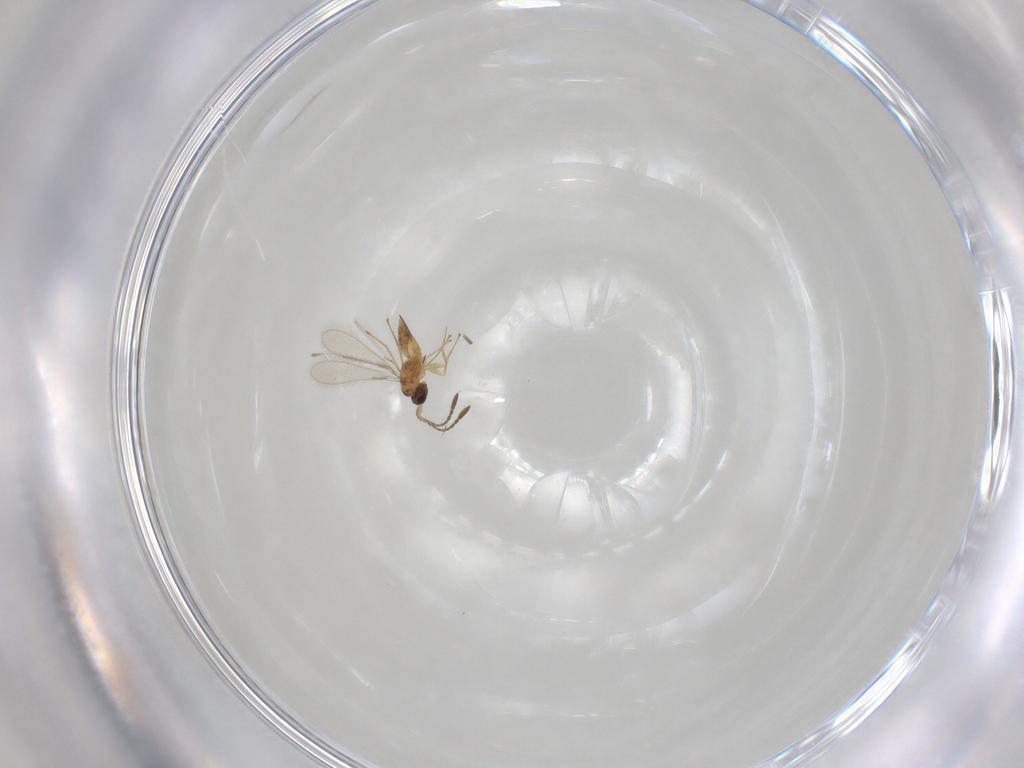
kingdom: Animalia
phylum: Arthropoda
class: Insecta
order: Hymenoptera
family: Mymaridae
